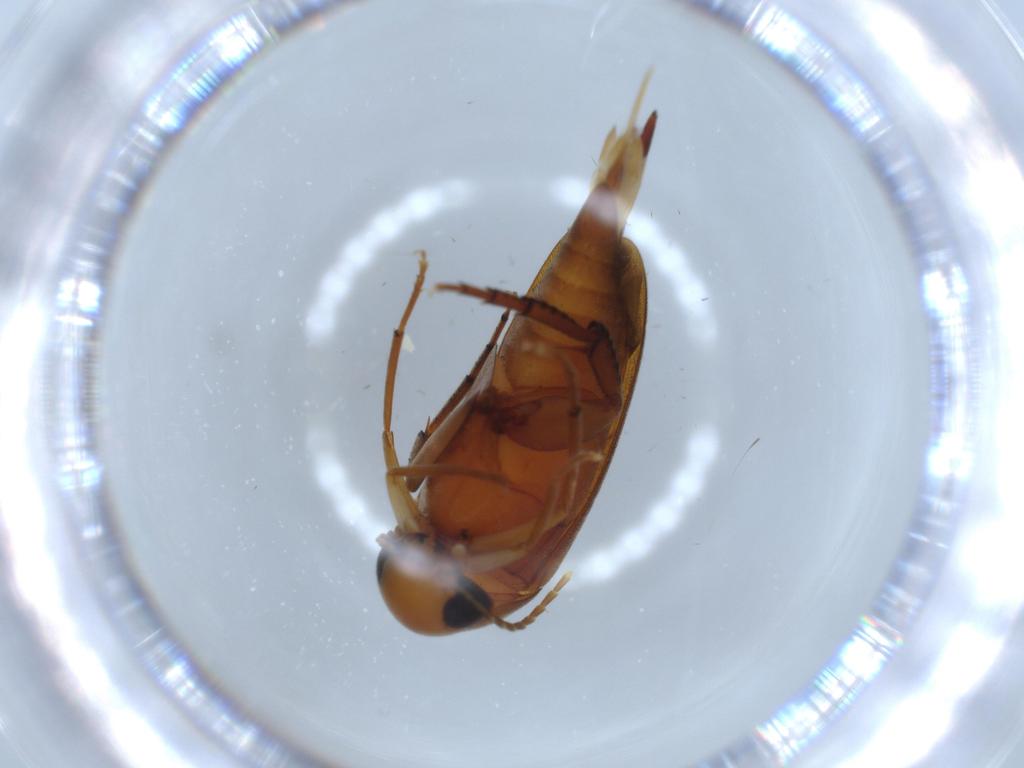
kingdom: Animalia
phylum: Arthropoda
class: Insecta
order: Coleoptera
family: Mordellidae
